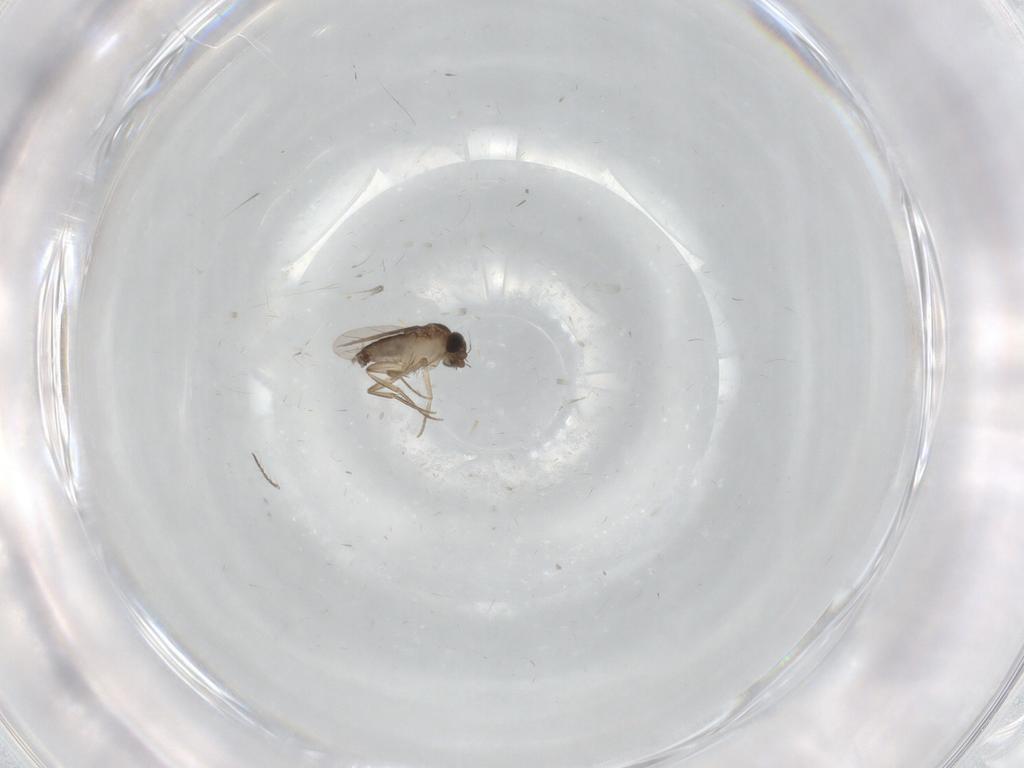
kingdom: Animalia
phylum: Arthropoda
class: Insecta
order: Diptera
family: Phoridae
